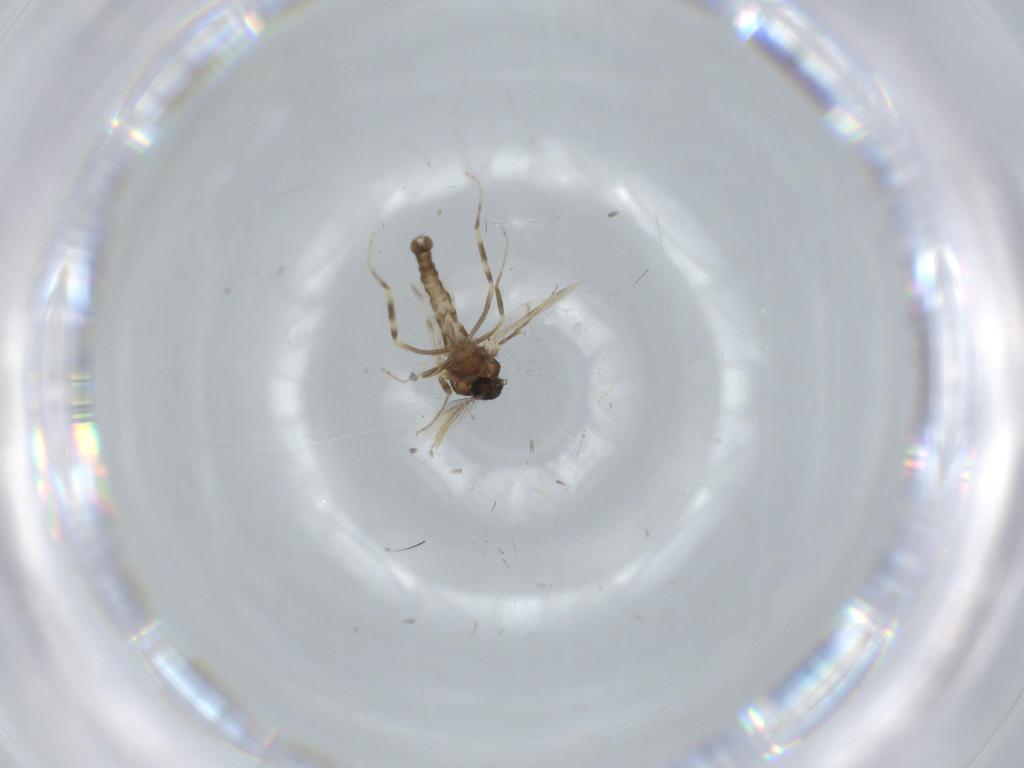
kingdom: Animalia
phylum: Arthropoda
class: Insecta
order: Diptera
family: Ceratopogonidae
